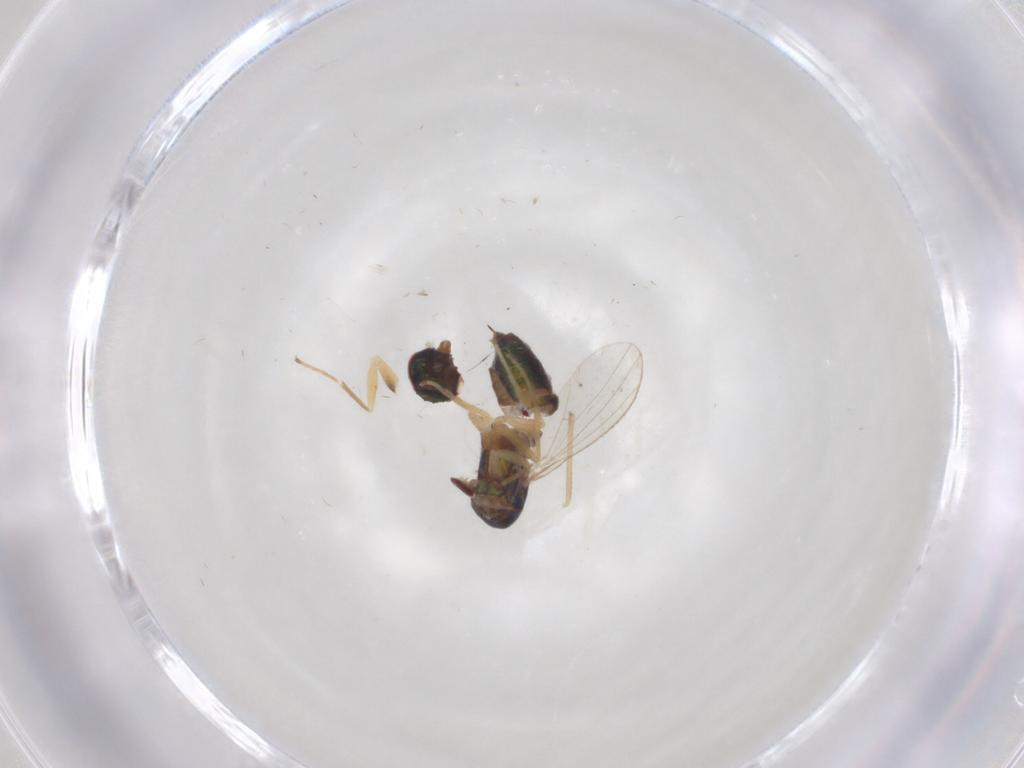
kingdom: Animalia
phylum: Arthropoda
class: Insecta
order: Diptera
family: Dolichopodidae
